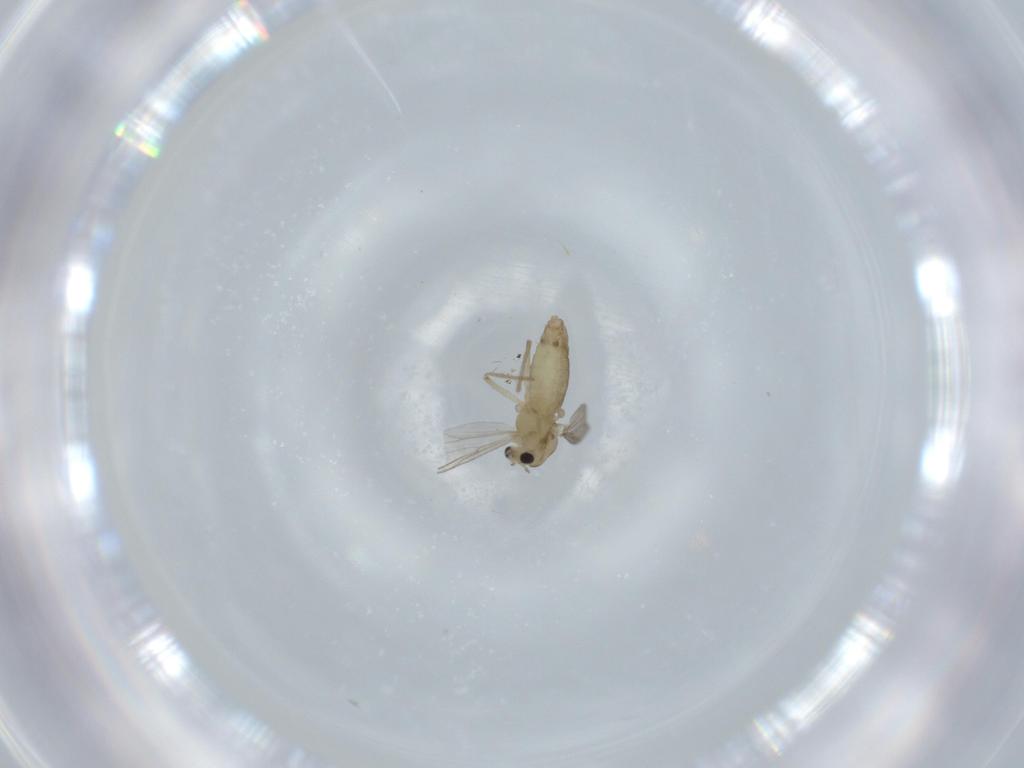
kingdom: Animalia
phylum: Arthropoda
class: Insecta
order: Diptera
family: Chironomidae
